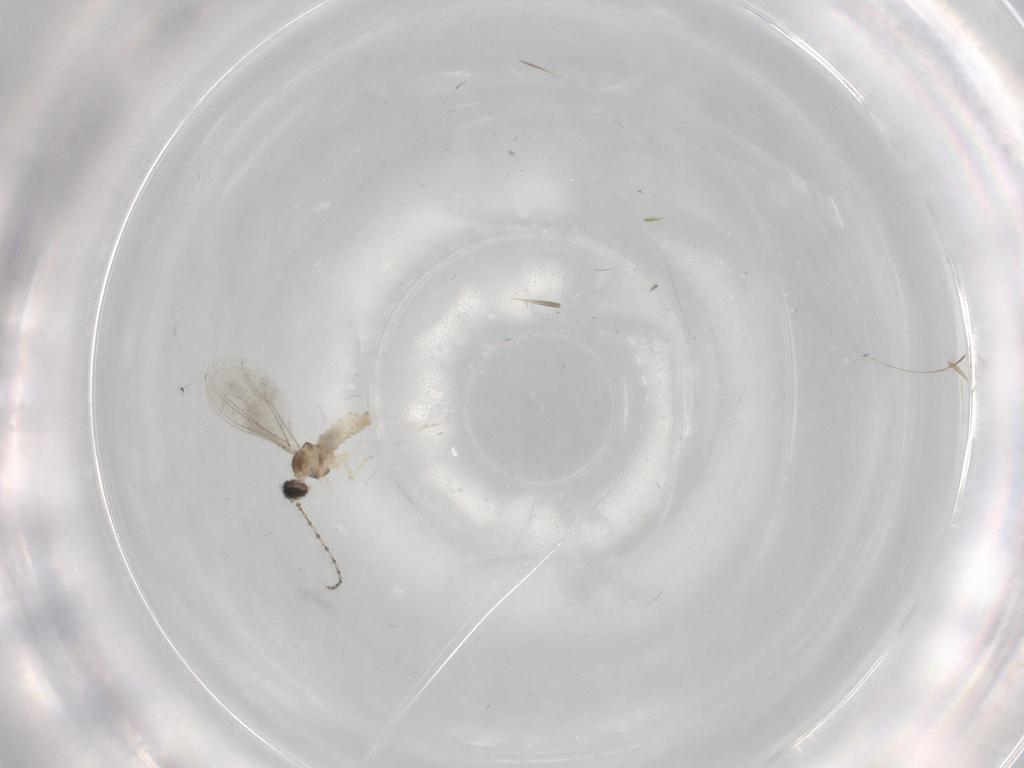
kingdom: Animalia
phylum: Arthropoda
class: Insecta
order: Diptera
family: Cecidomyiidae
